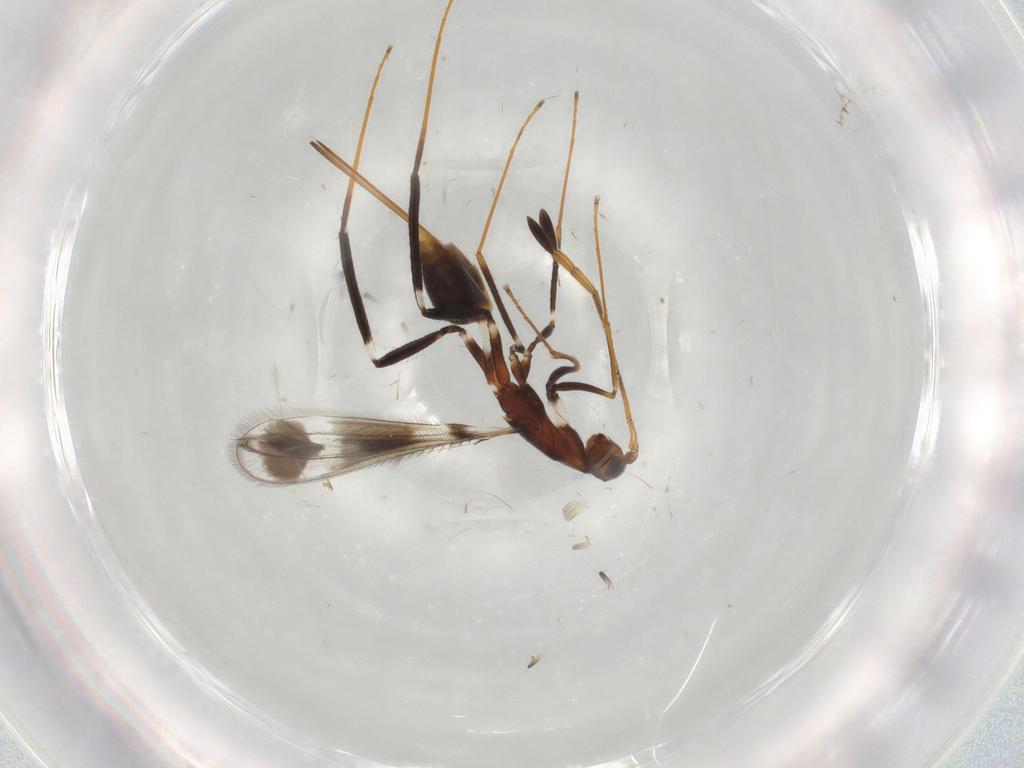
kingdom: Animalia
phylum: Arthropoda
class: Insecta
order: Hymenoptera
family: Mymaridae
